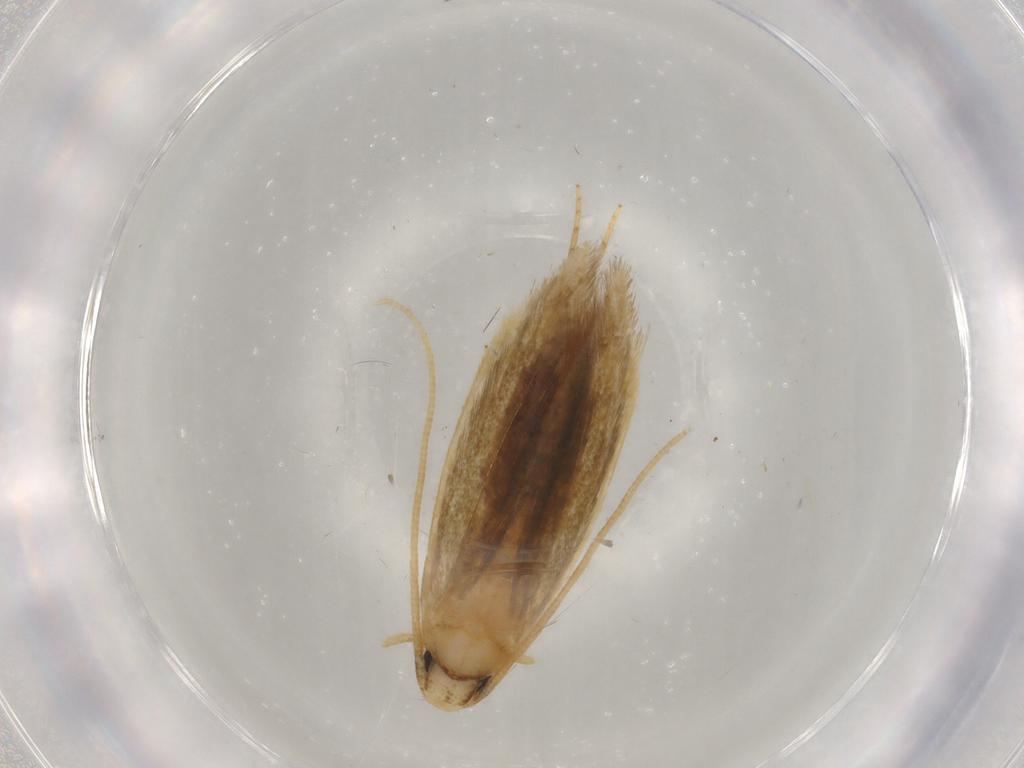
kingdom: Animalia
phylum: Arthropoda
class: Insecta
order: Lepidoptera
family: Tineidae
